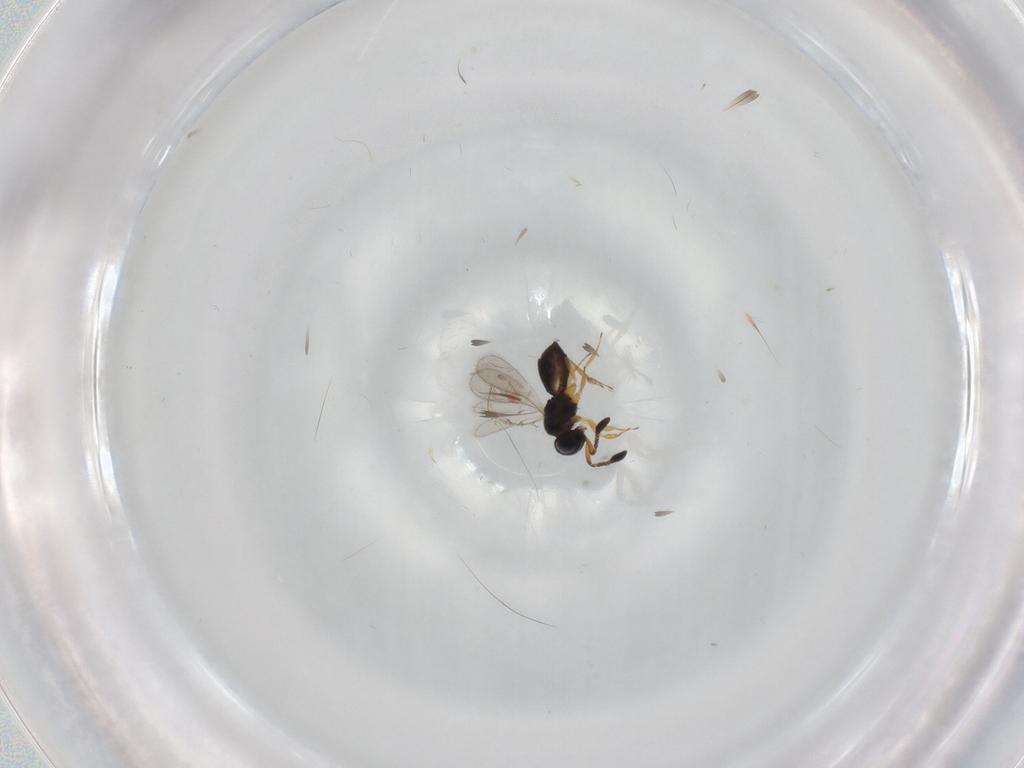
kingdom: Animalia
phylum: Arthropoda
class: Insecta
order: Hymenoptera
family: Scelionidae
